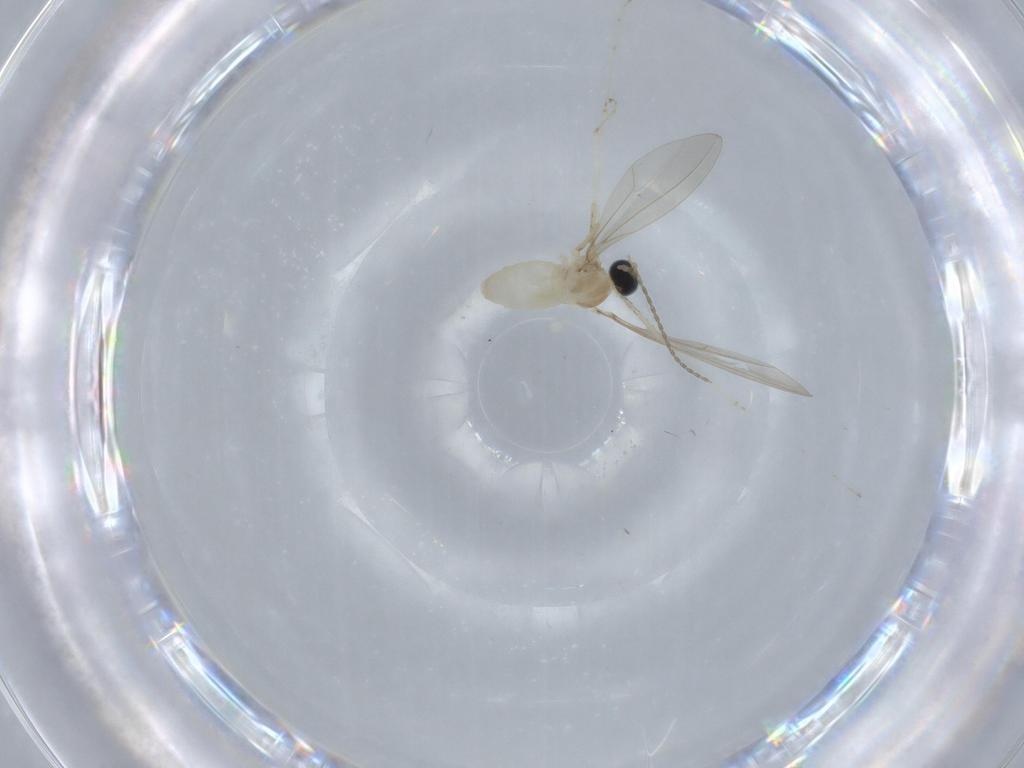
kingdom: Animalia
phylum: Arthropoda
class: Insecta
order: Diptera
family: Cecidomyiidae
